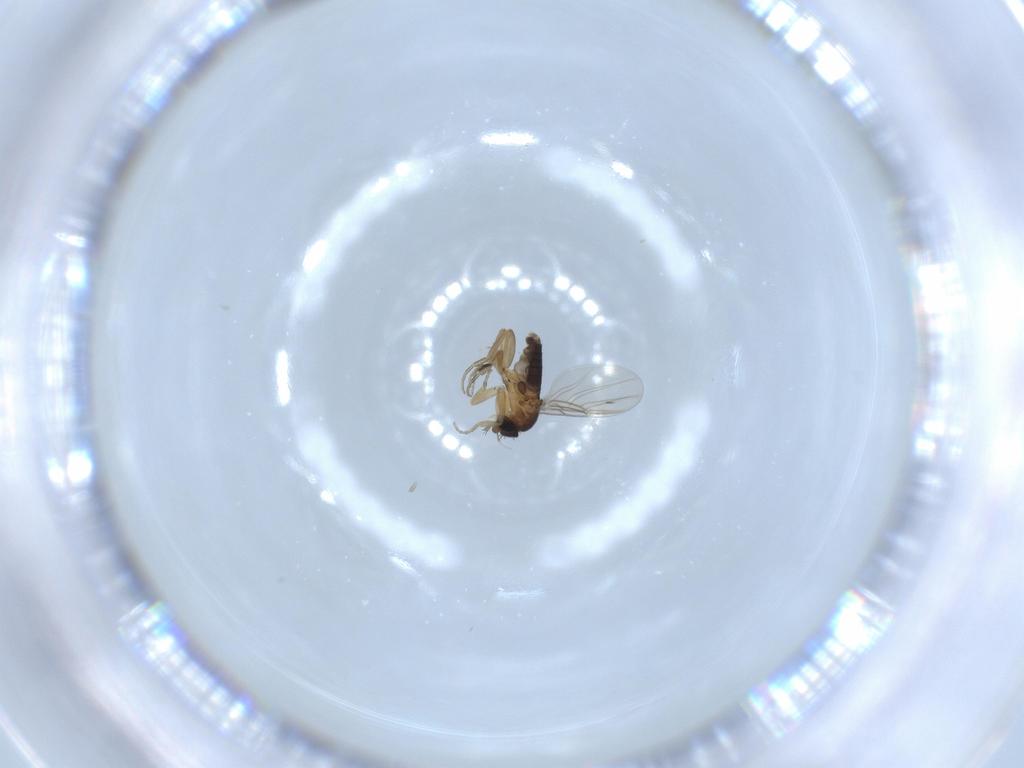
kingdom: Animalia
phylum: Arthropoda
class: Insecta
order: Diptera
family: Phoridae
